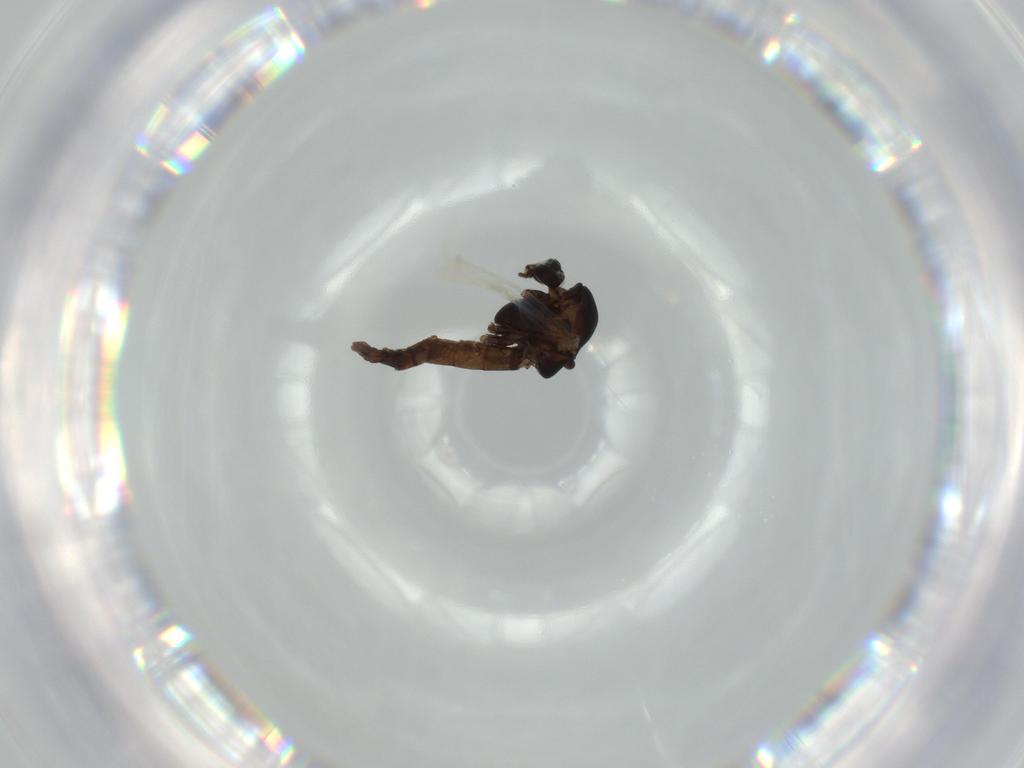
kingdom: Animalia
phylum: Arthropoda
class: Insecta
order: Diptera
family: Chironomidae
